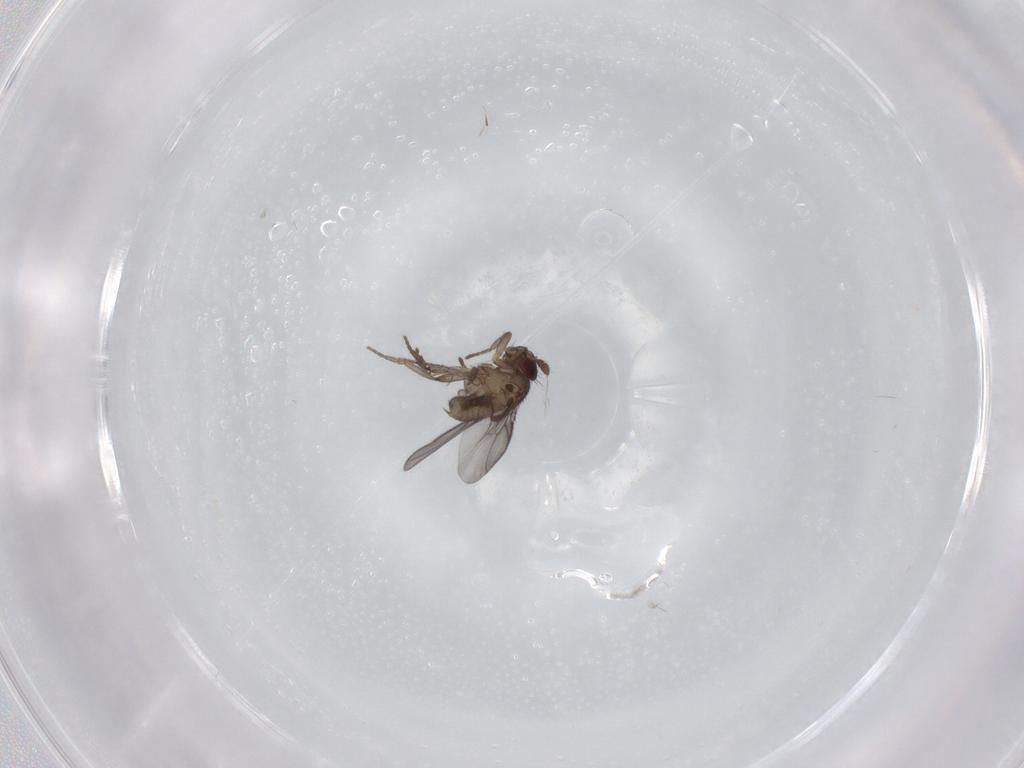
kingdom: Animalia
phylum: Arthropoda
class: Insecta
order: Diptera
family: Sphaeroceridae
